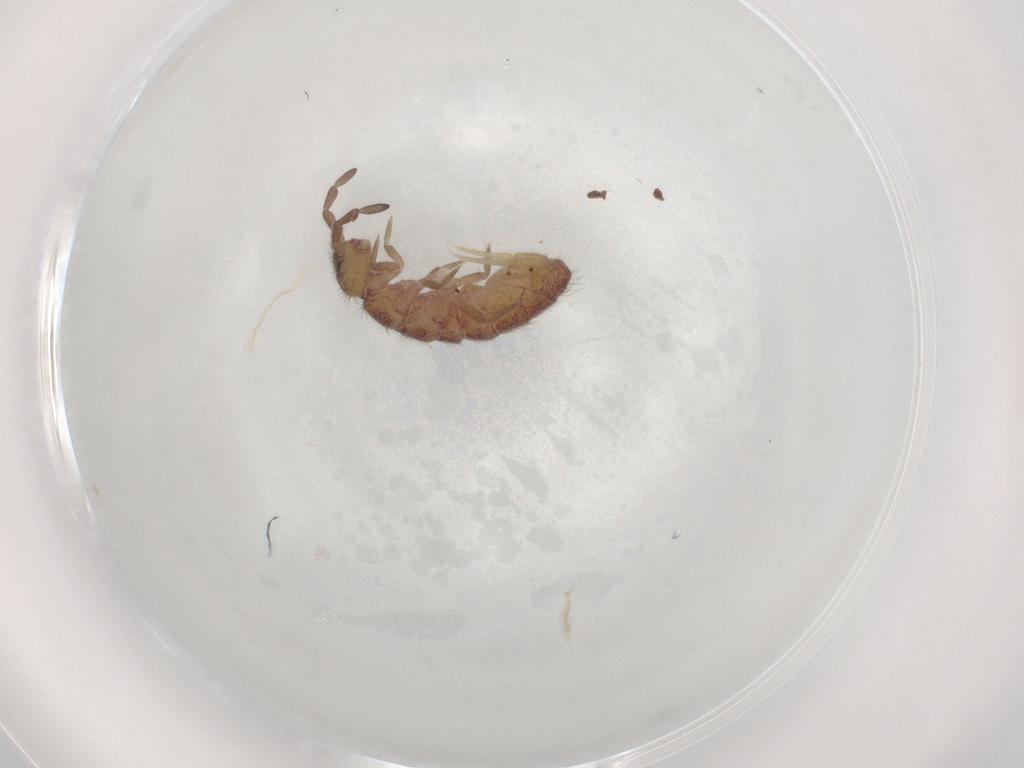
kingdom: Animalia
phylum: Arthropoda
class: Collembola
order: Entomobryomorpha
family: Isotomidae
